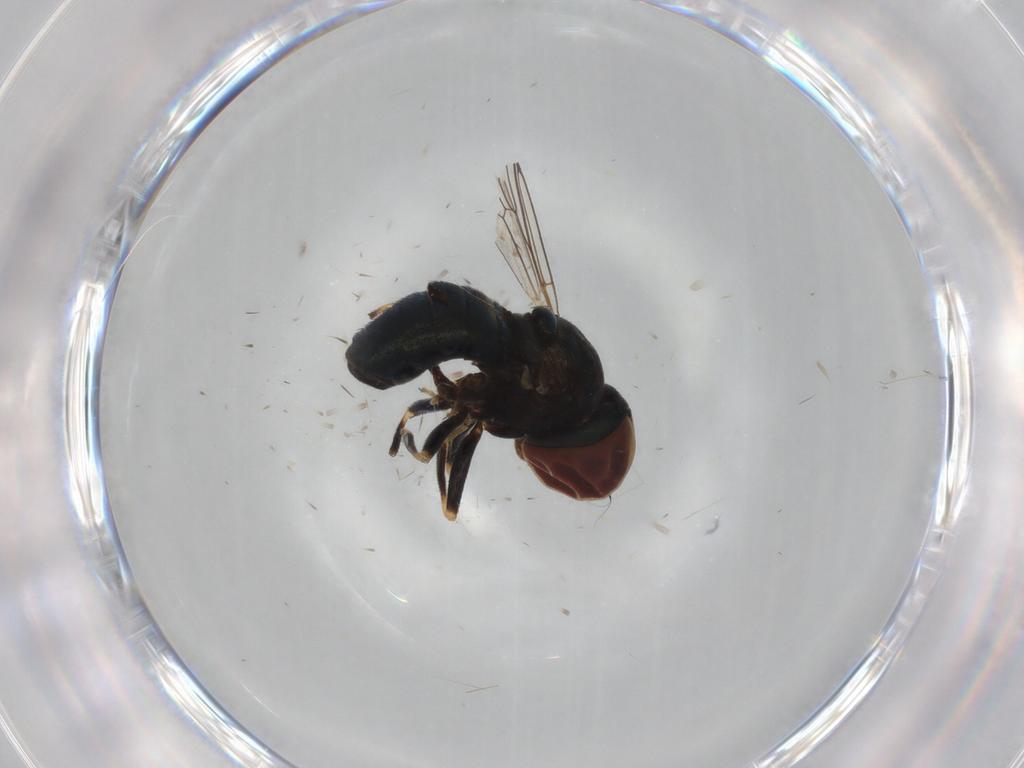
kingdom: Animalia
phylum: Arthropoda
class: Insecta
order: Diptera
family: Pipunculidae
